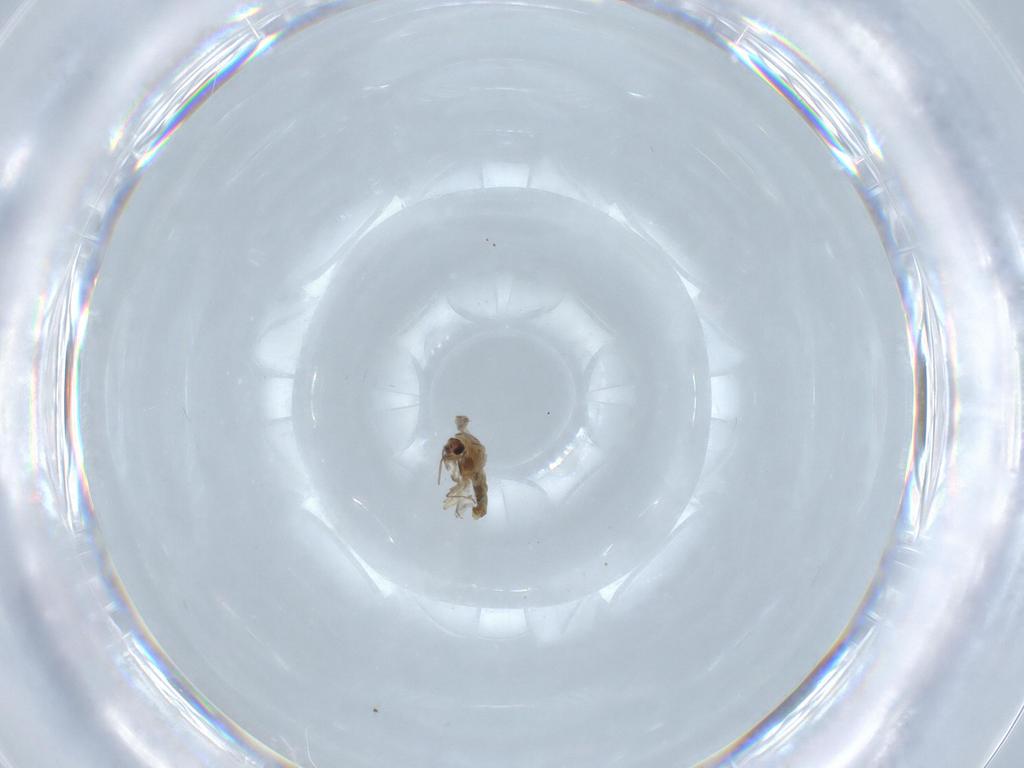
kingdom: Animalia
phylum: Arthropoda
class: Insecta
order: Diptera
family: Chironomidae
